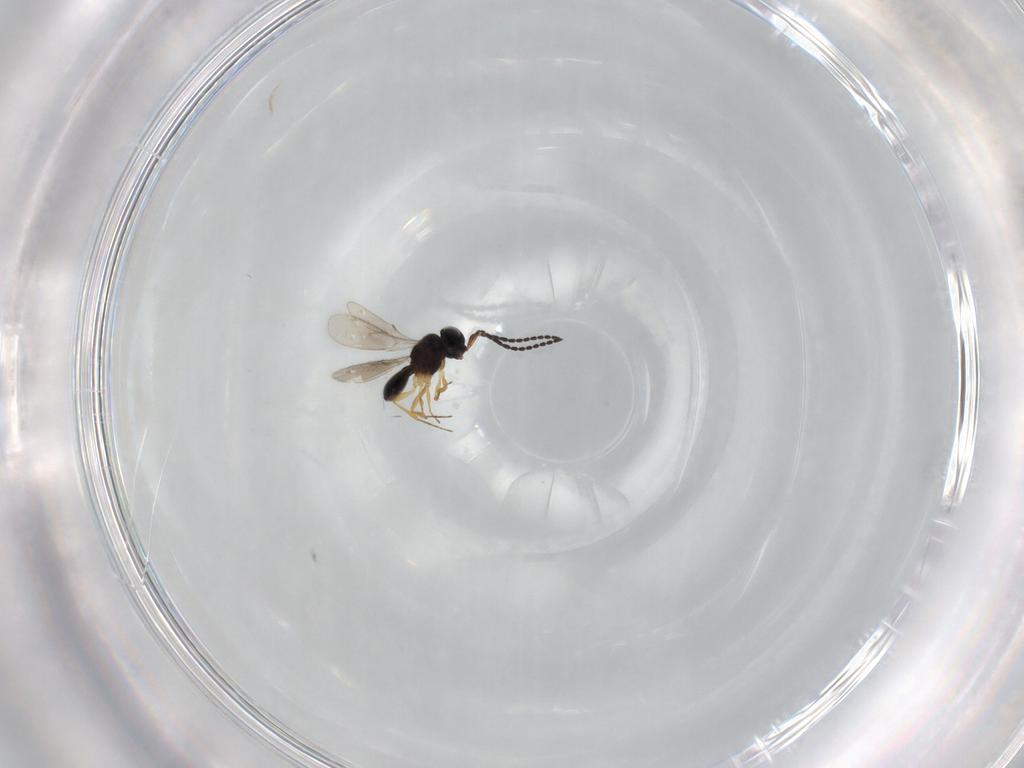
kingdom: Animalia
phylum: Arthropoda
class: Insecta
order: Hymenoptera
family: Scelionidae
